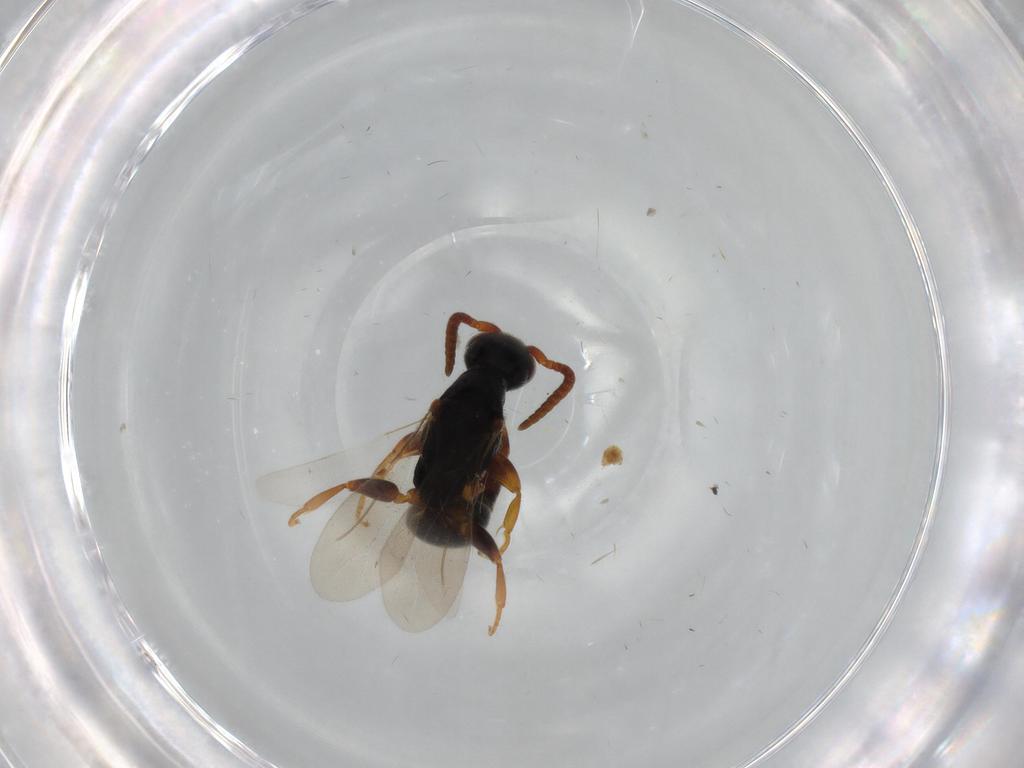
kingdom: Animalia
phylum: Arthropoda
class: Insecta
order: Hymenoptera
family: Bethylidae
